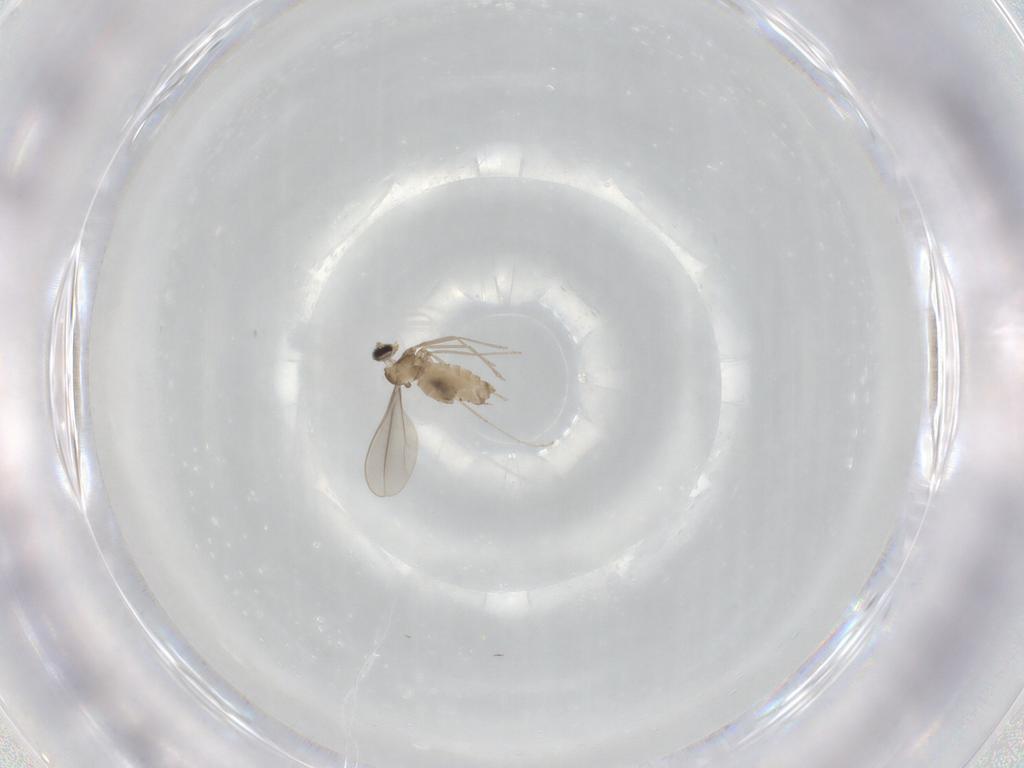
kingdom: Animalia
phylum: Arthropoda
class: Insecta
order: Diptera
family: Cecidomyiidae
